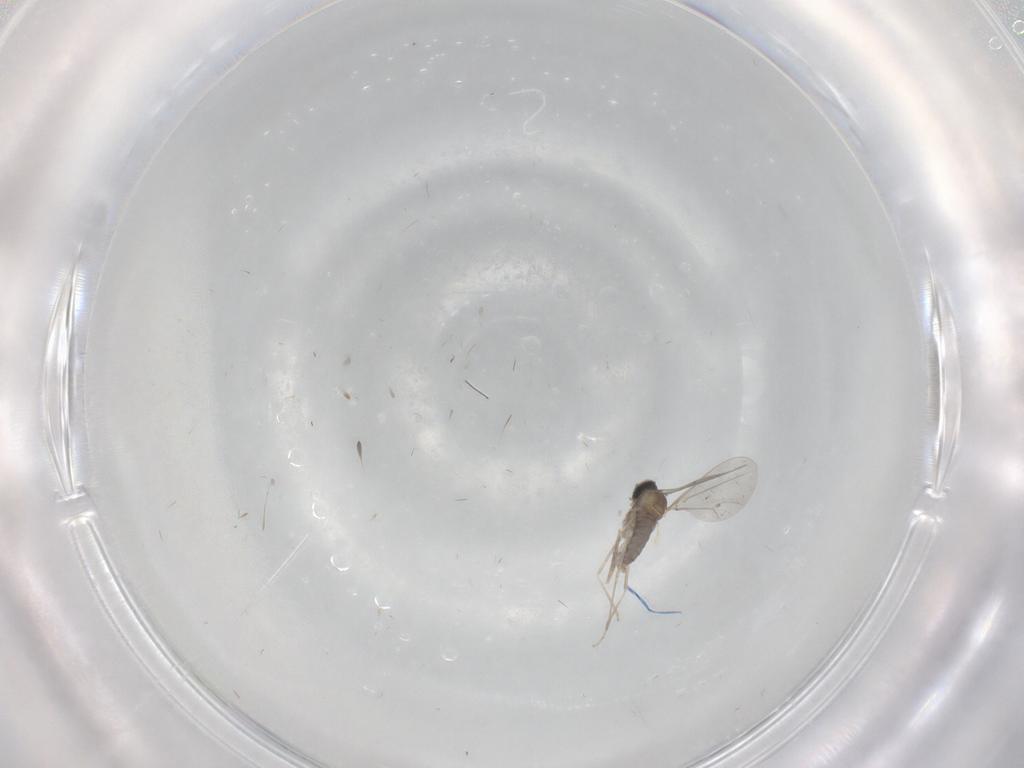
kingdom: Animalia
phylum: Arthropoda
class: Insecta
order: Diptera
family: Cecidomyiidae
